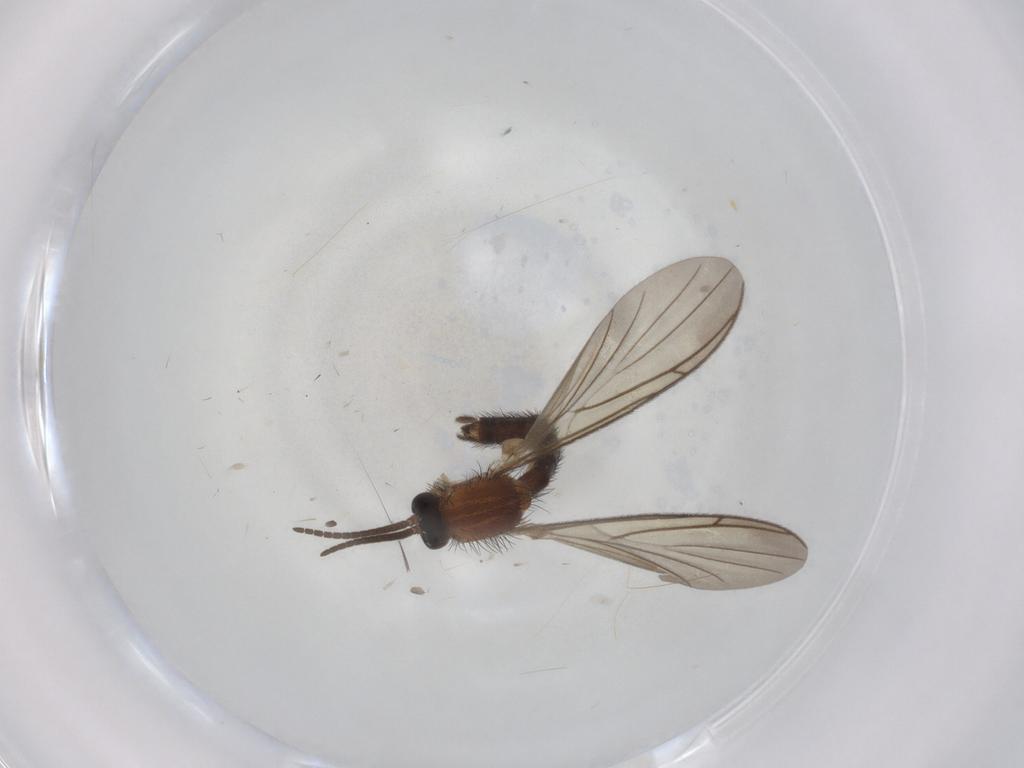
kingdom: Animalia
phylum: Arthropoda
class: Insecta
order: Diptera
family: Keroplatidae
